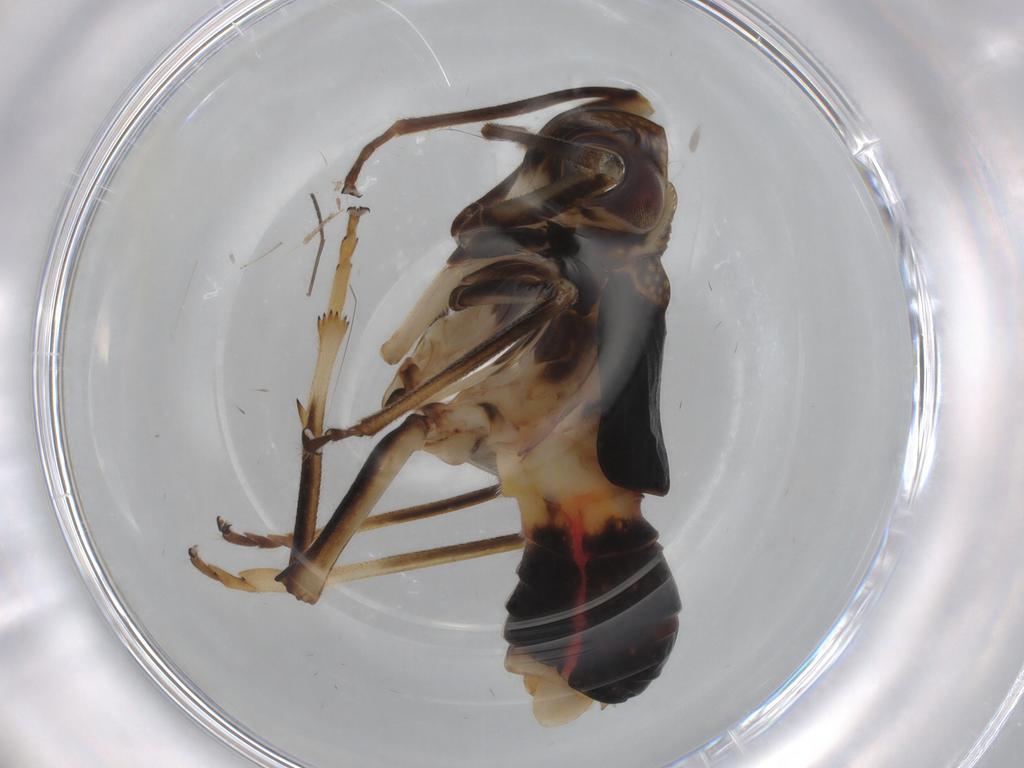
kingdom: Animalia
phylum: Arthropoda
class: Insecta
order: Hemiptera
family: Caliscelidae
